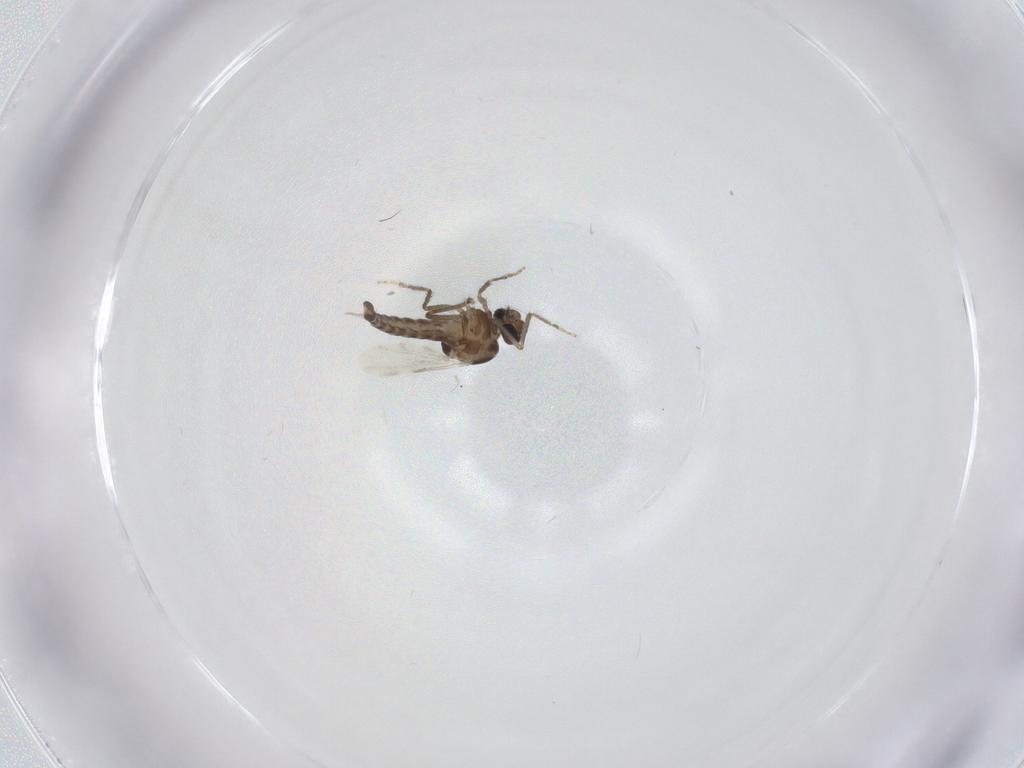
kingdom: Animalia
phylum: Arthropoda
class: Insecta
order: Diptera
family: Ceratopogonidae
